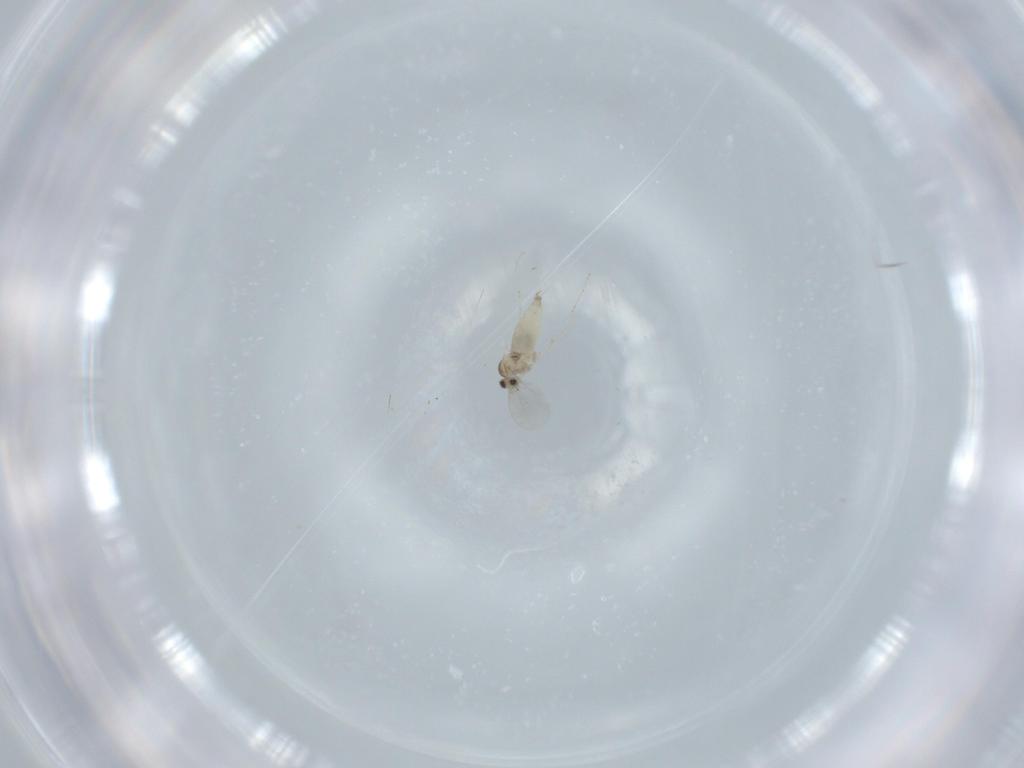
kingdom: Animalia
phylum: Arthropoda
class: Insecta
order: Diptera
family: Cecidomyiidae
